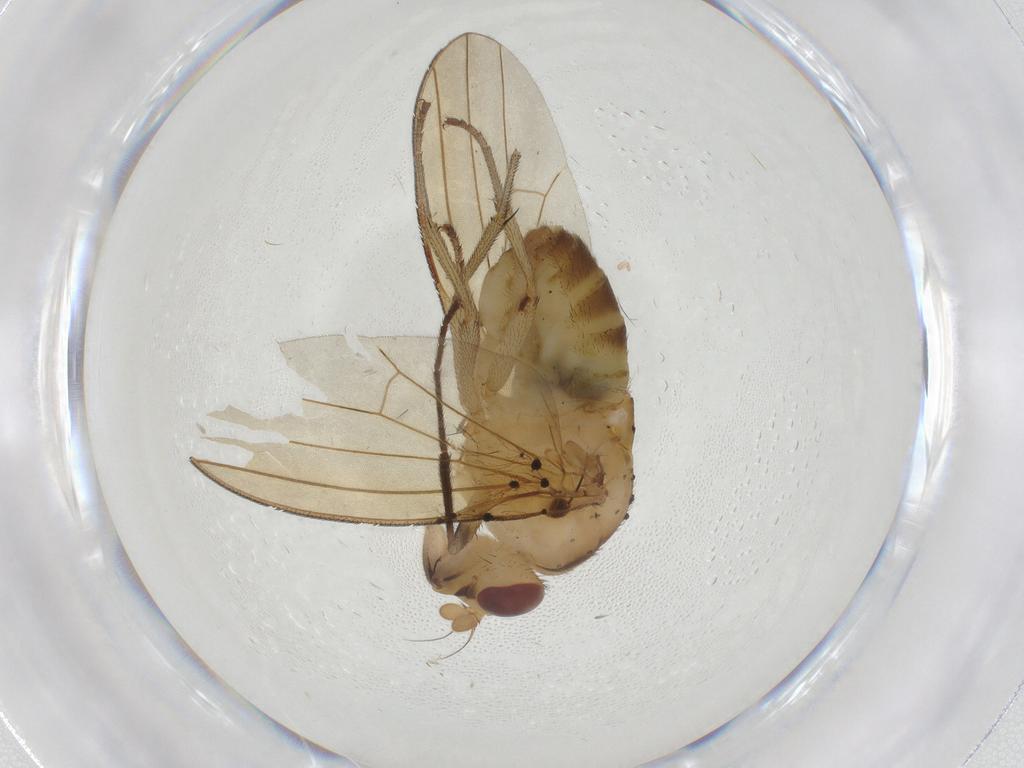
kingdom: Animalia
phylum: Arthropoda
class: Insecta
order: Diptera
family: Lauxaniidae
